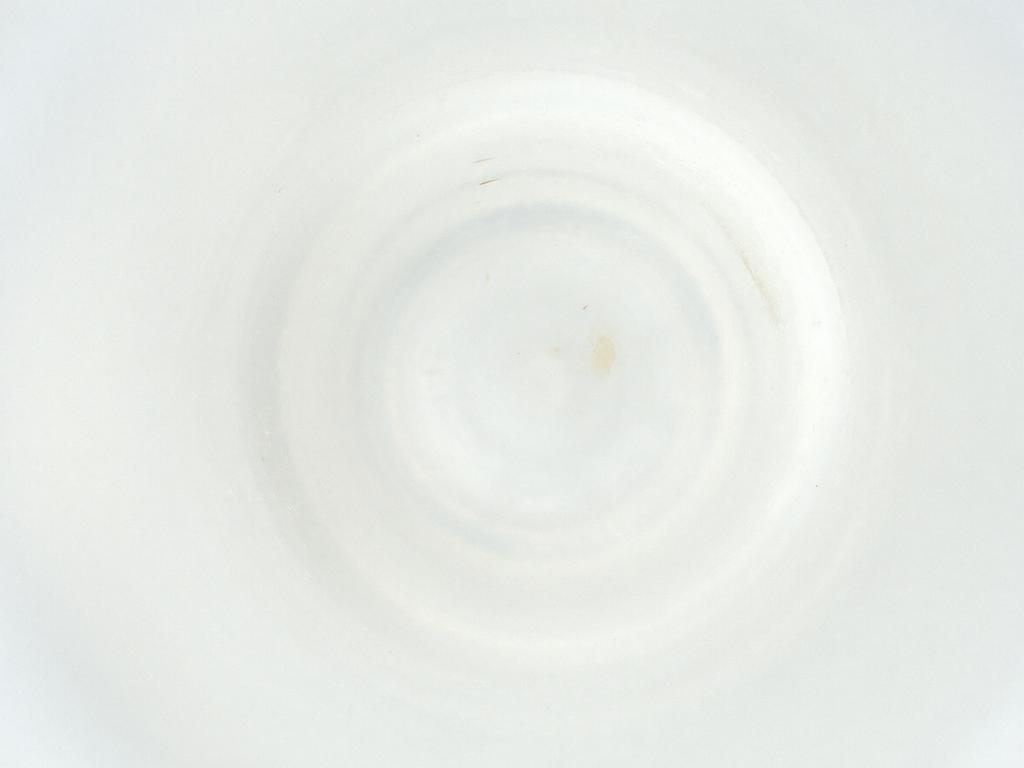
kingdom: Animalia
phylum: Arthropoda
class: Arachnida
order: Mesostigmata
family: Phytoseiidae
